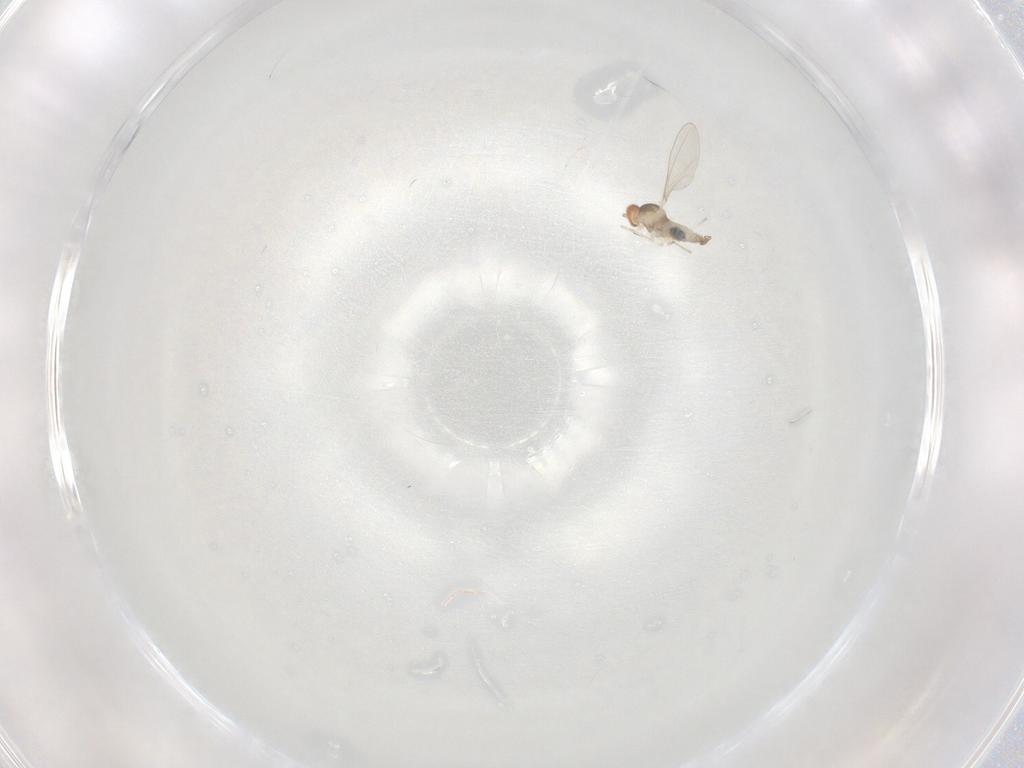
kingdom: Animalia
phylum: Arthropoda
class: Insecta
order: Diptera
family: Cecidomyiidae
